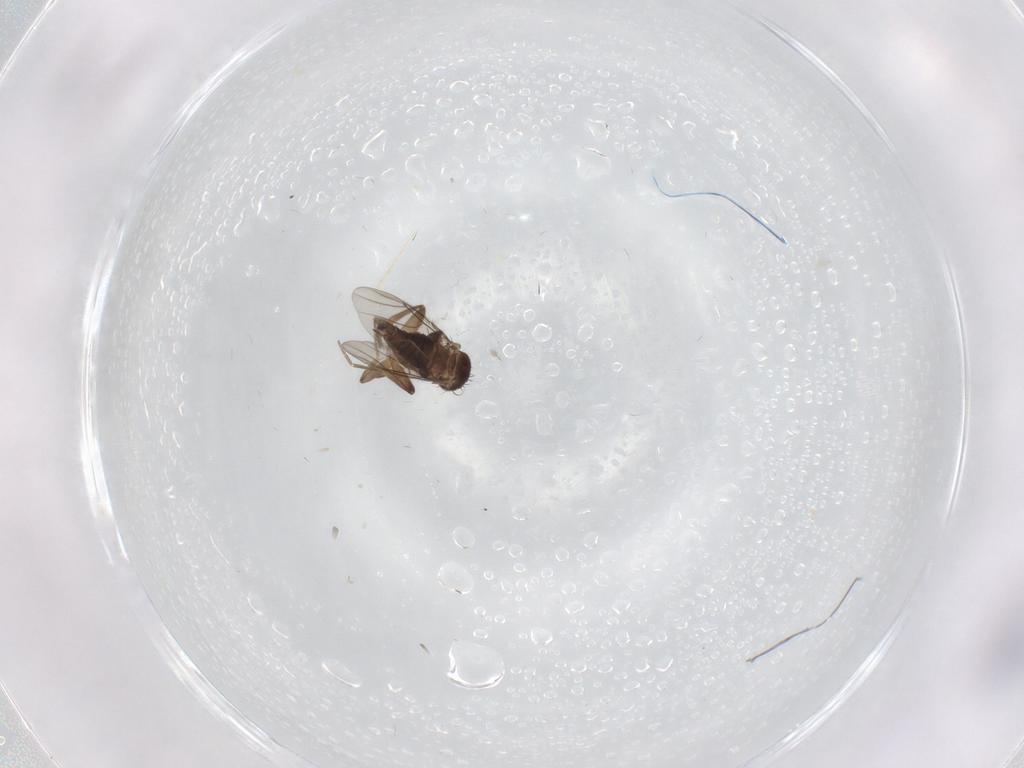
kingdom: Animalia
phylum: Arthropoda
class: Insecta
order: Diptera
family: Phoridae
